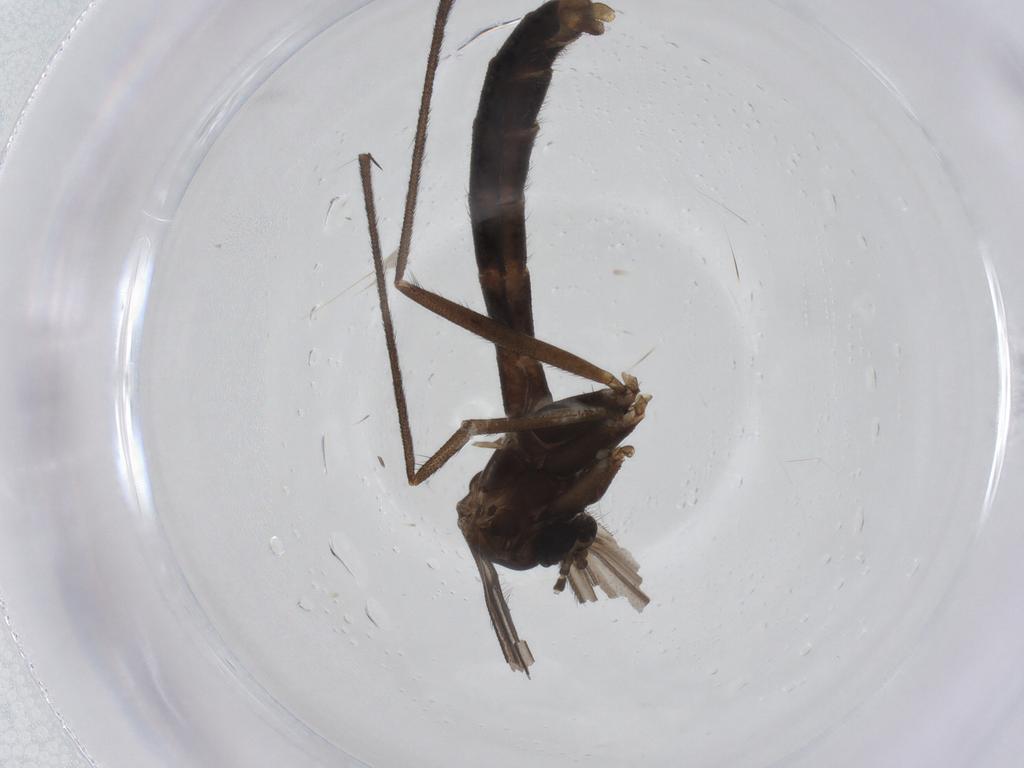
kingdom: Animalia
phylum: Arthropoda
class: Insecta
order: Diptera
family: Tachinidae
